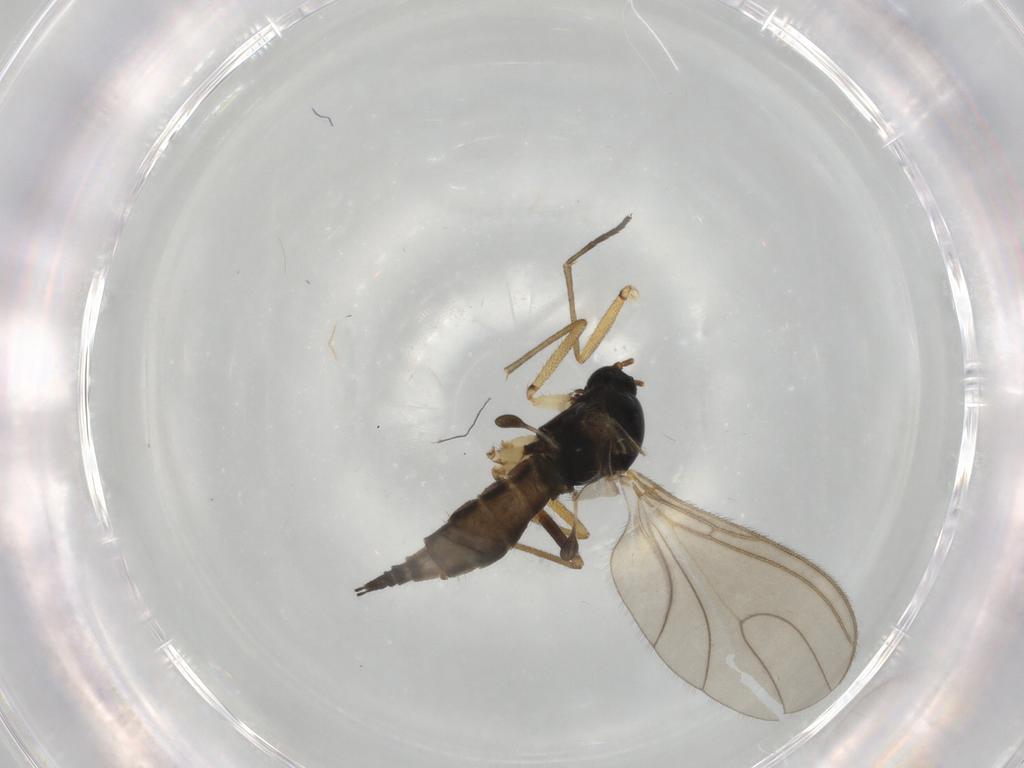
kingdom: Animalia
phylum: Arthropoda
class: Insecta
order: Diptera
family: Sciaridae
